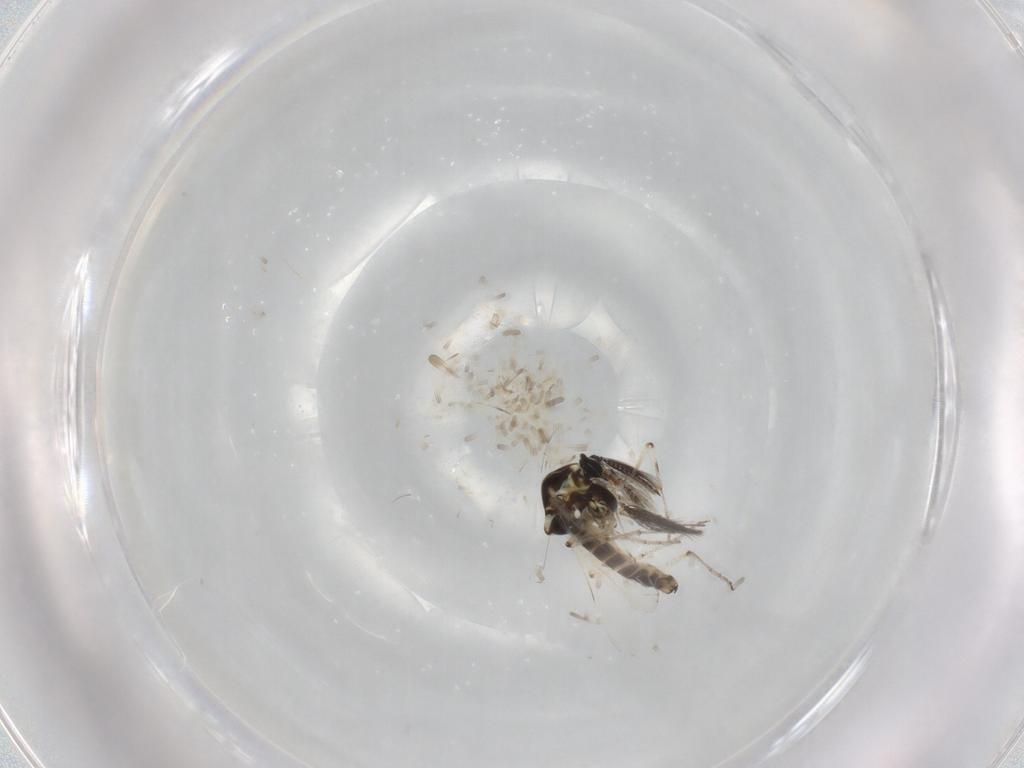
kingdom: Animalia
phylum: Arthropoda
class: Insecta
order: Diptera
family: Ceratopogonidae
